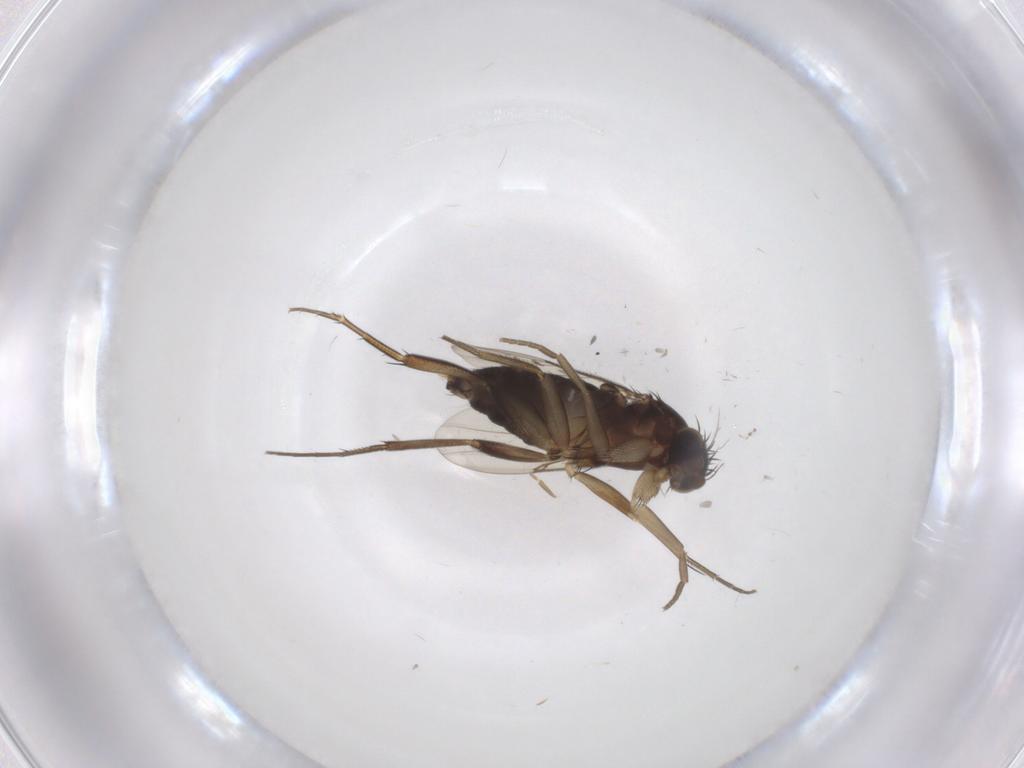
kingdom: Animalia
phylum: Arthropoda
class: Insecta
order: Diptera
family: Phoridae
